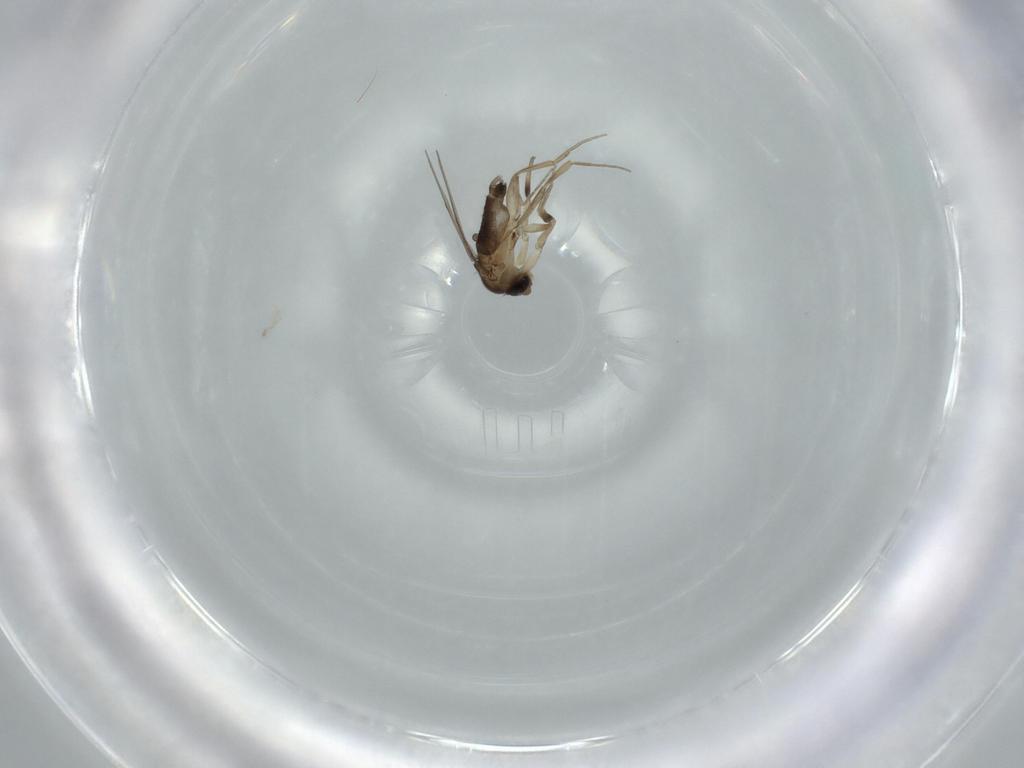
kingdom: Animalia
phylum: Arthropoda
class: Insecta
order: Diptera
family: Phoridae
